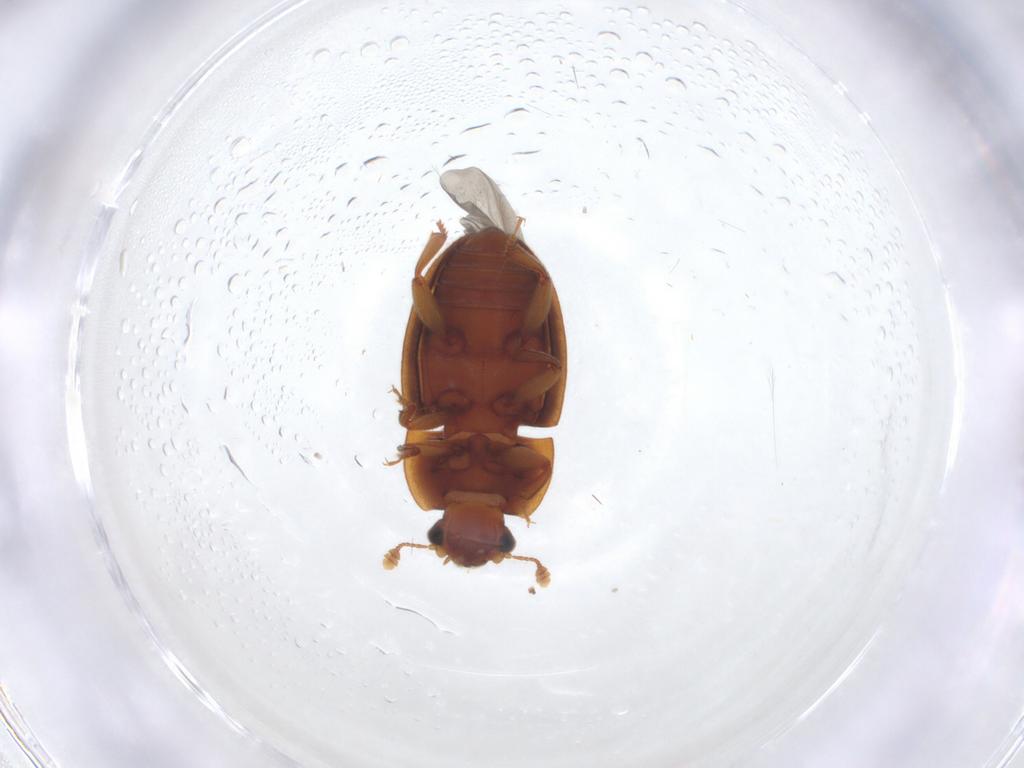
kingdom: Animalia
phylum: Arthropoda
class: Insecta
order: Coleoptera
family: Nitidulidae
